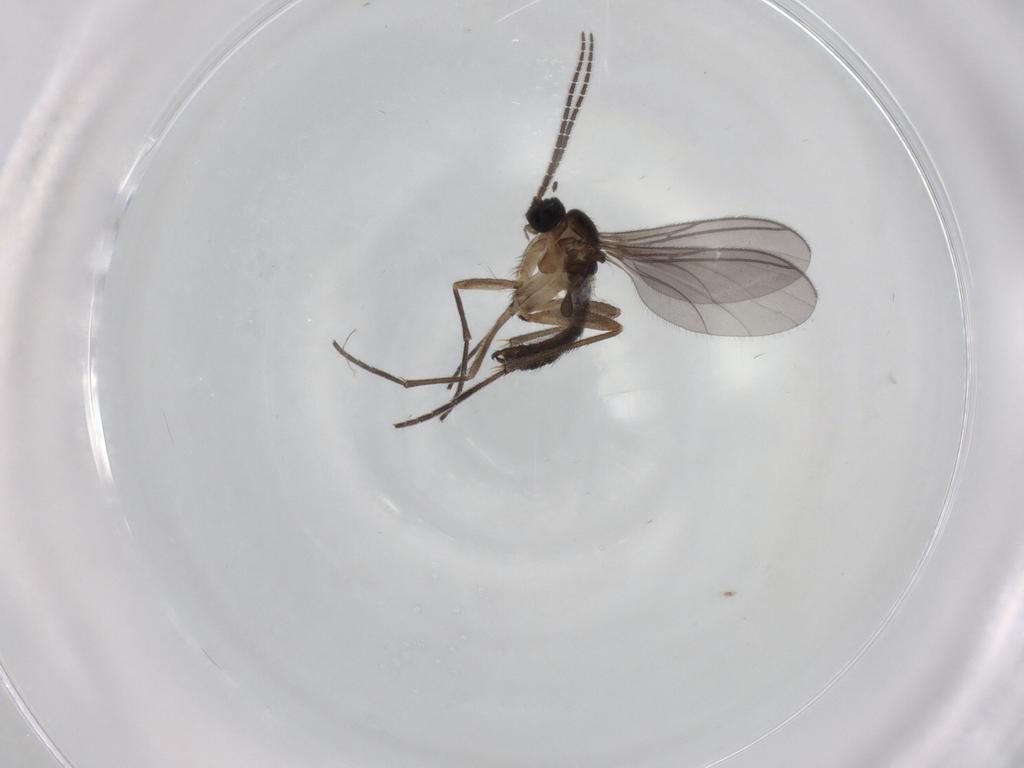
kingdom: Animalia
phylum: Arthropoda
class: Insecta
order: Diptera
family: Sciaridae
